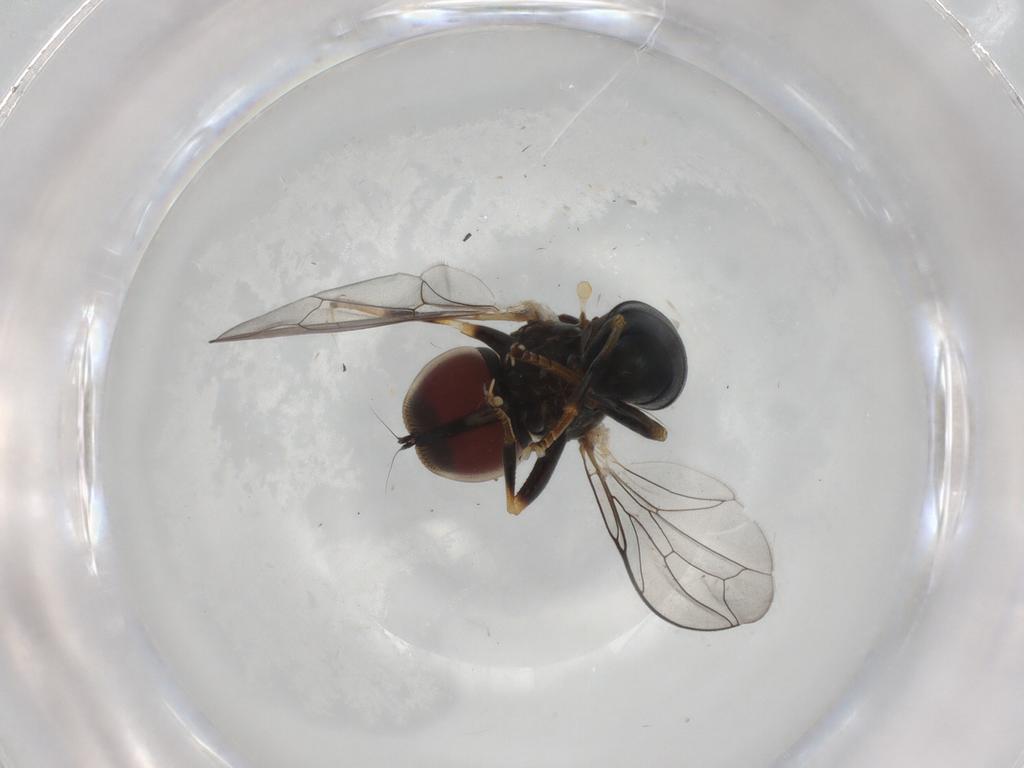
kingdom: Animalia
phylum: Arthropoda
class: Insecta
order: Diptera
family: Pipunculidae
